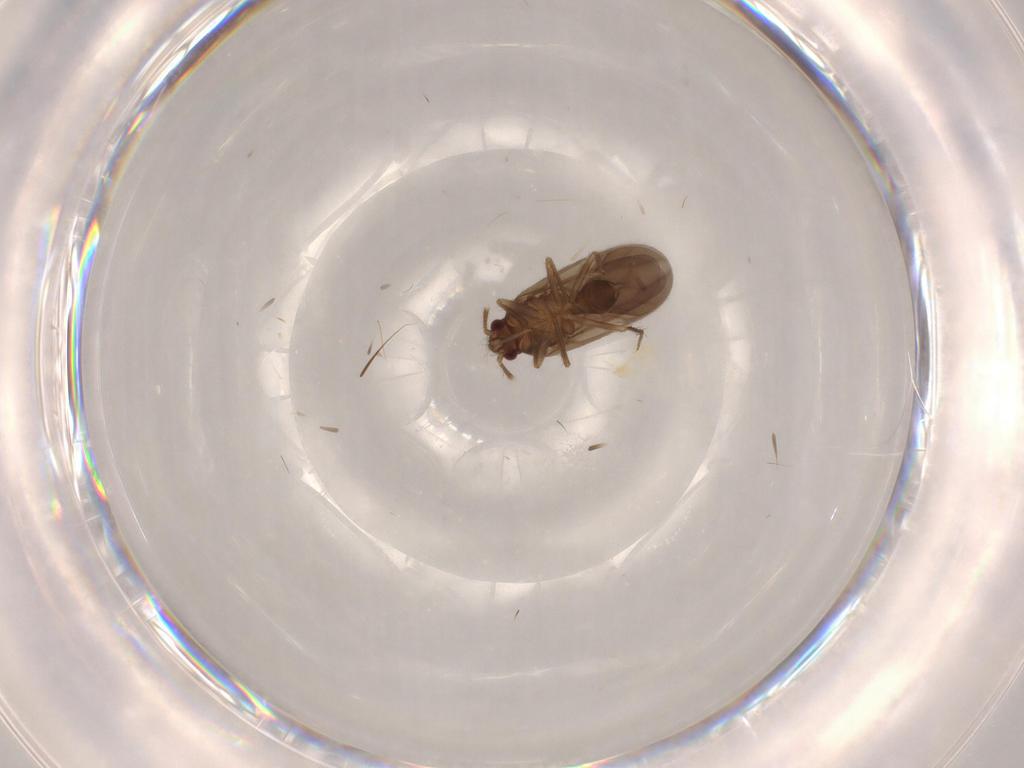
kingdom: Animalia
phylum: Arthropoda
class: Insecta
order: Hemiptera
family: Ceratocombidae
